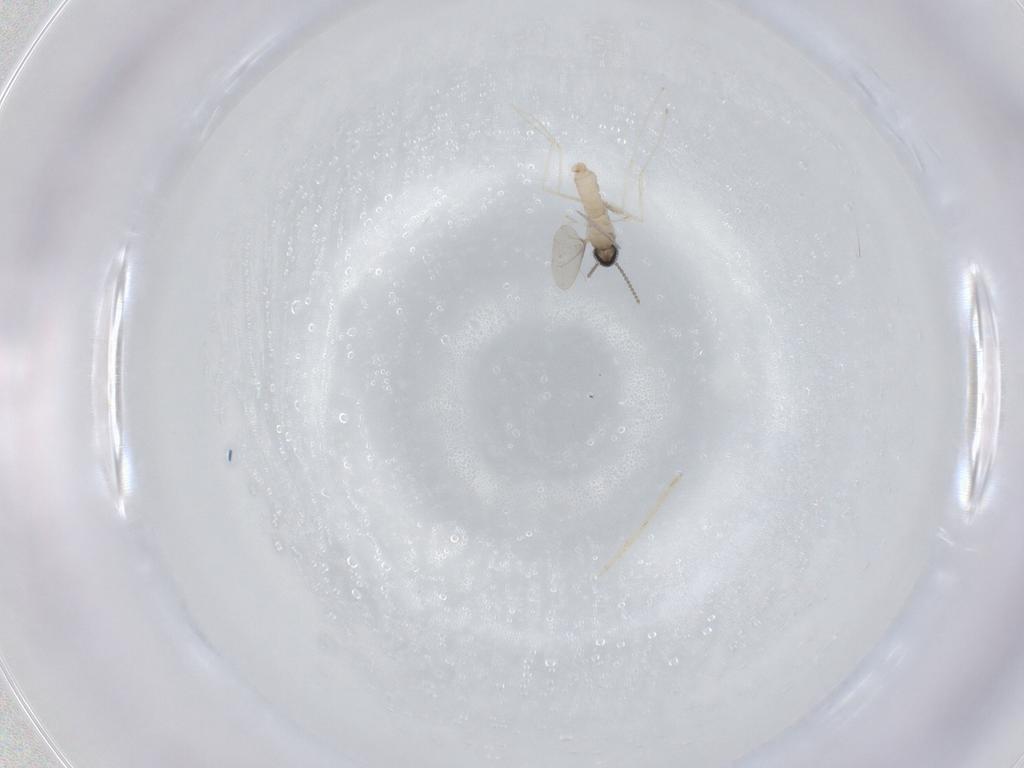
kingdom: Animalia
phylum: Arthropoda
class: Insecta
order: Diptera
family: Cecidomyiidae
